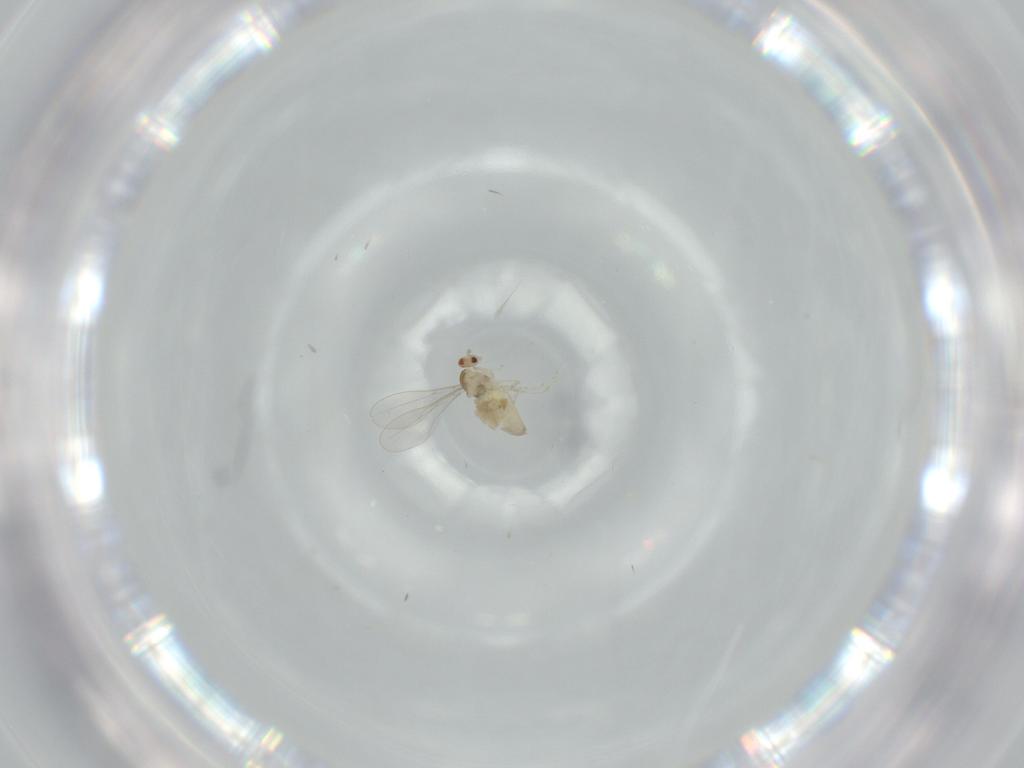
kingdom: Animalia
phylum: Arthropoda
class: Insecta
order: Diptera
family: Cecidomyiidae
